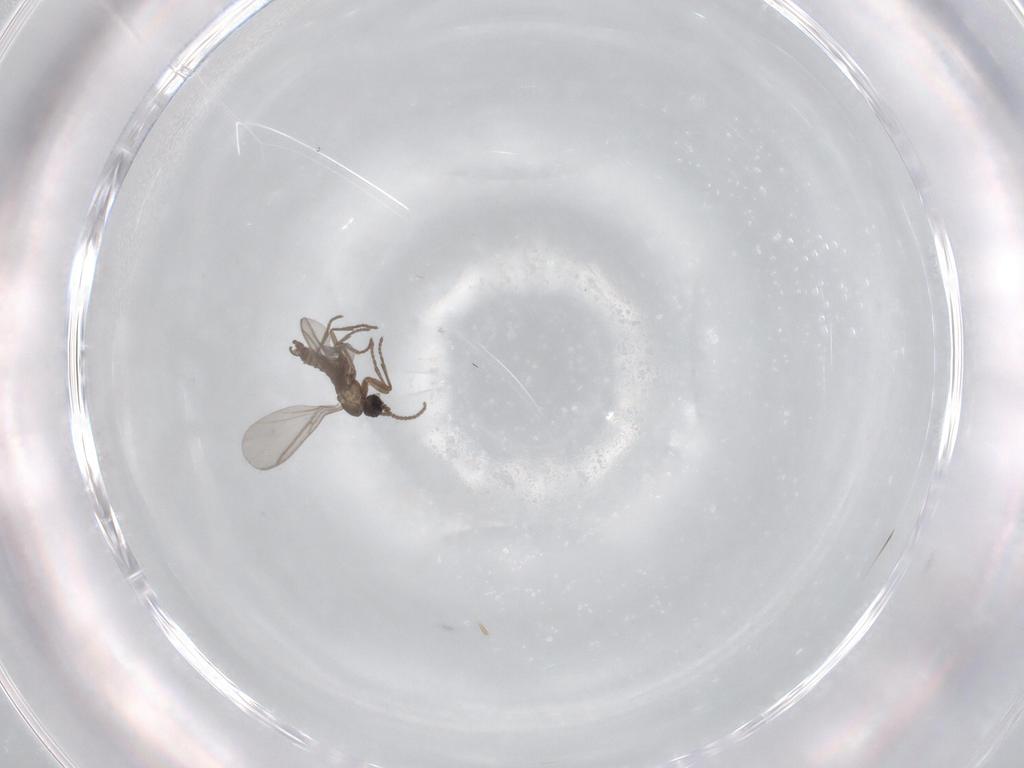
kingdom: Animalia
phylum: Arthropoda
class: Insecta
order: Diptera
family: Chironomidae
